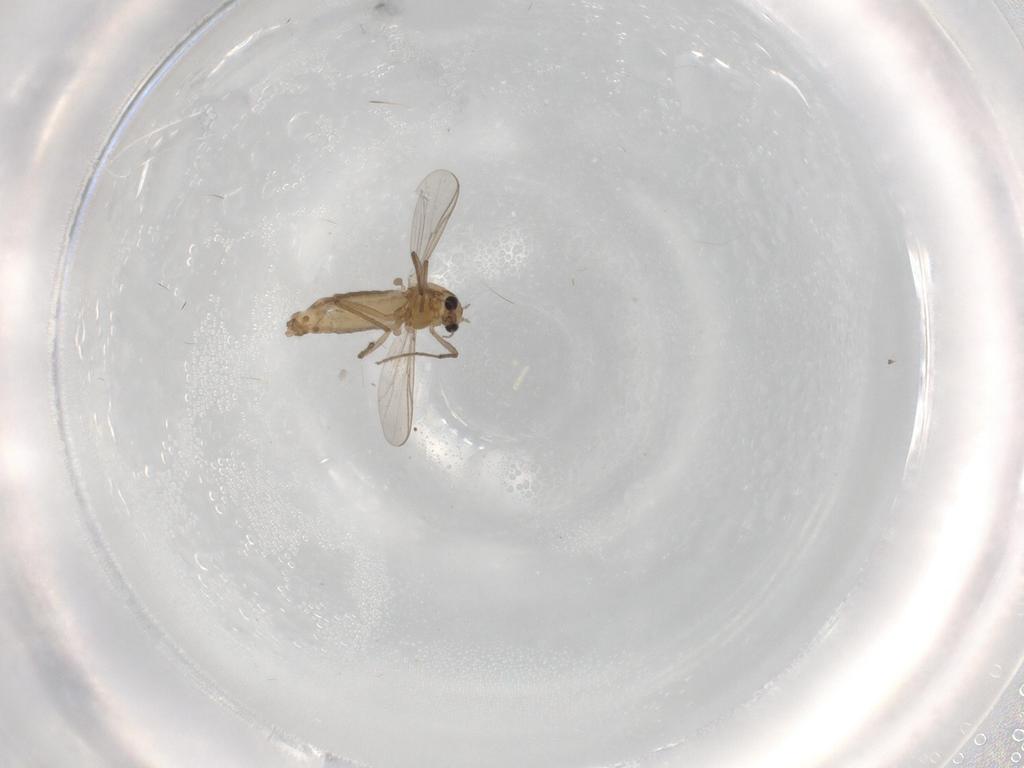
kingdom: Animalia
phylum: Arthropoda
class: Insecta
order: Diptera
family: Chironomidae
